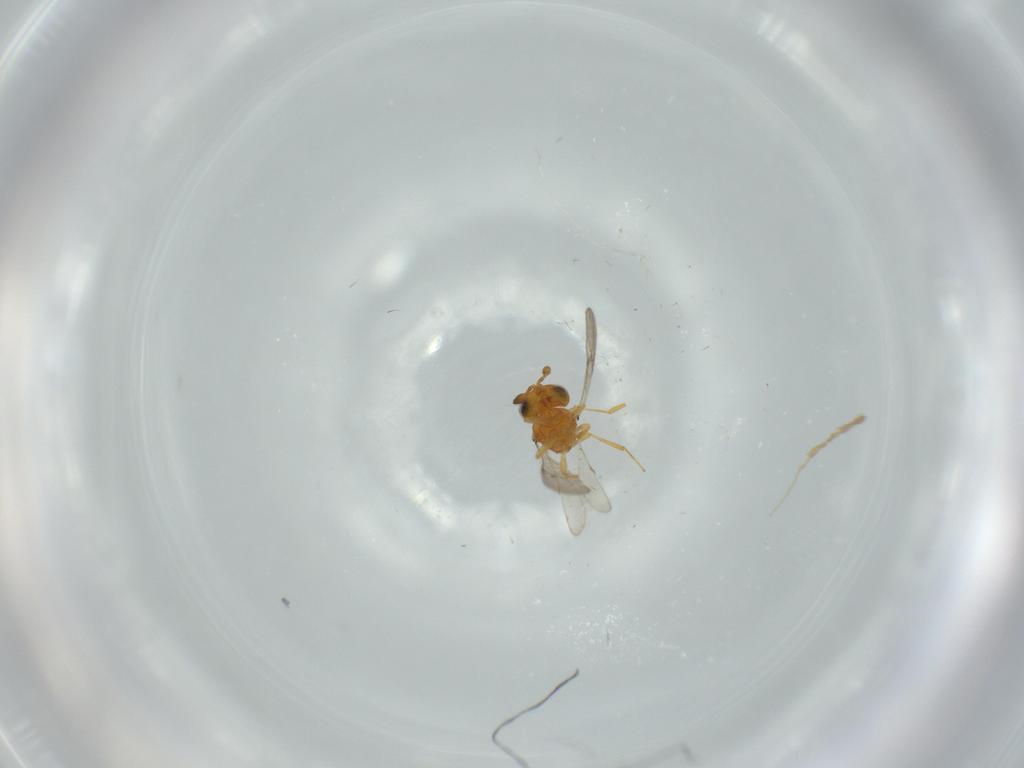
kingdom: Animalia
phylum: Arthropoda
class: Insecta
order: Hymenoptera
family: Scelionidae
